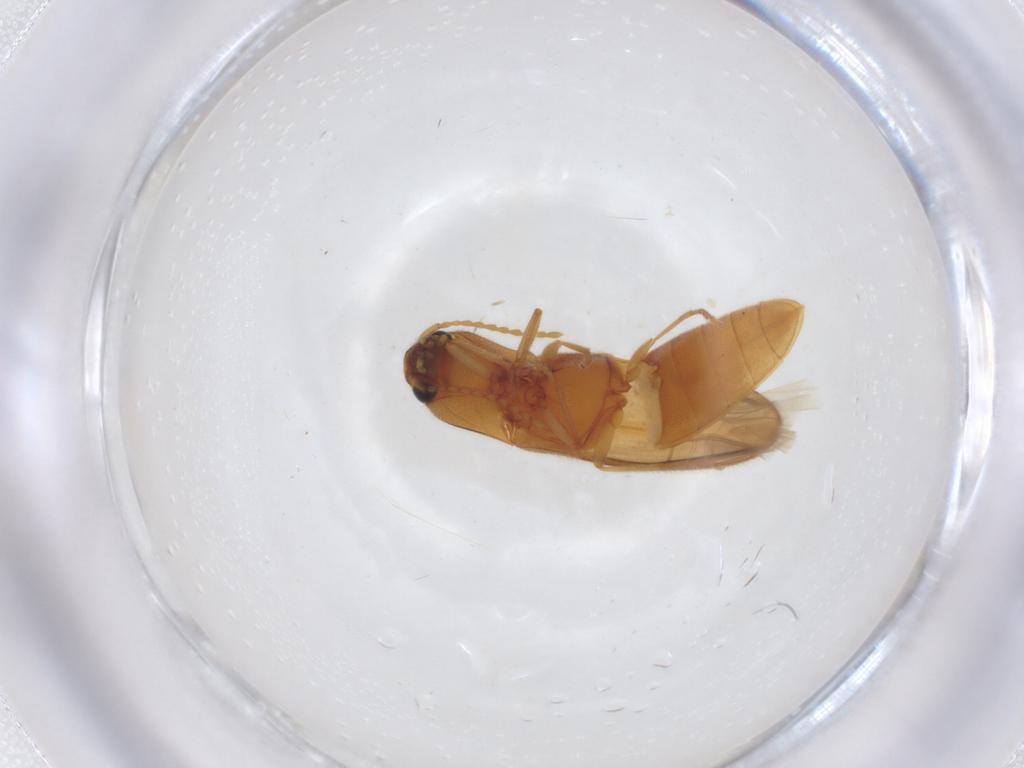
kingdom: Animalia
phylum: Arthropoda
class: Insecta
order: Coleoptera
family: Elateridae
